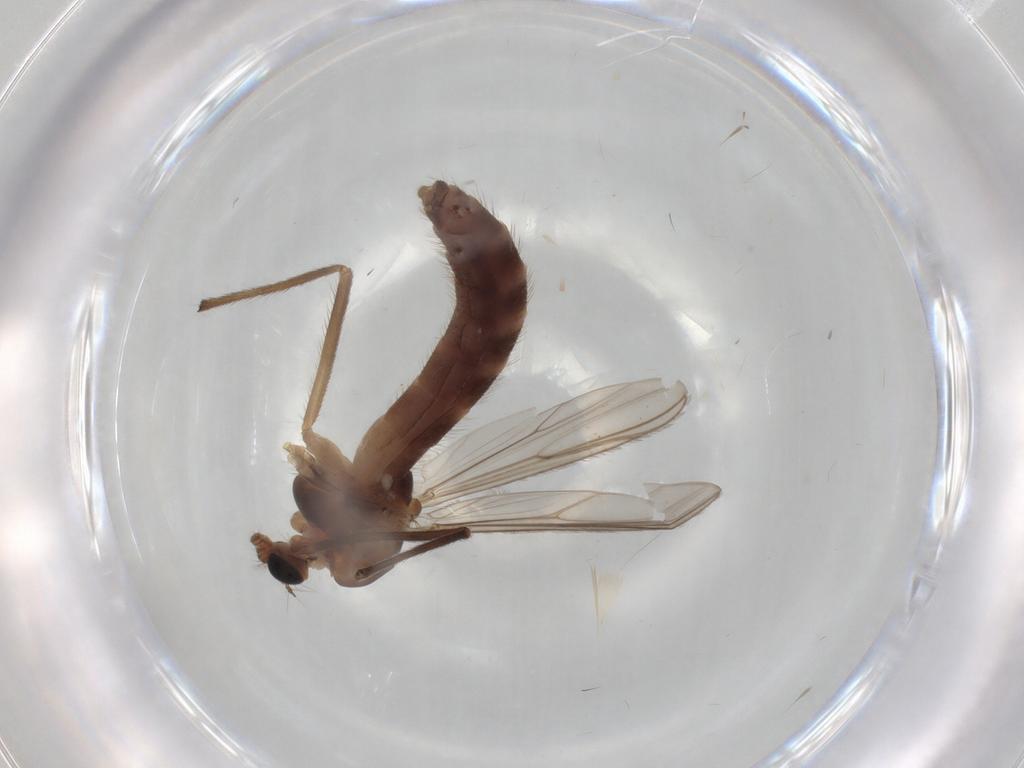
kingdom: Animalia
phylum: Arthropoda
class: Insecta
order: Diptera
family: Chironomidae
